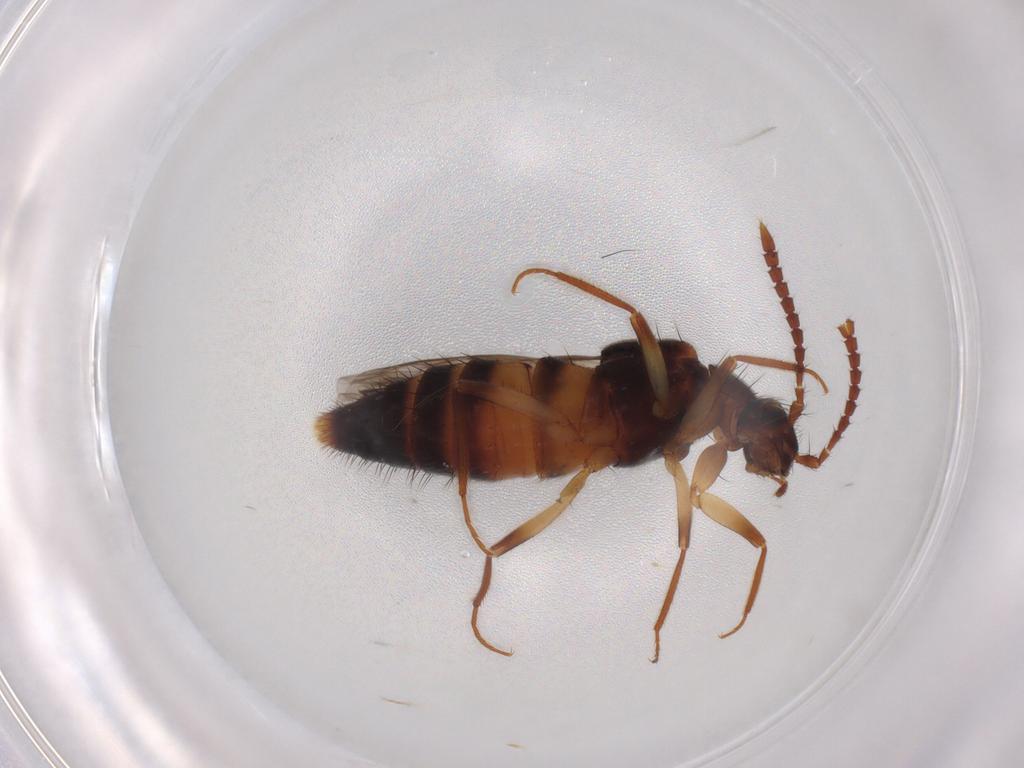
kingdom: Animalia
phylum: Arthropoda
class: Insecta
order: Coleoptera
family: Staphylinidae
